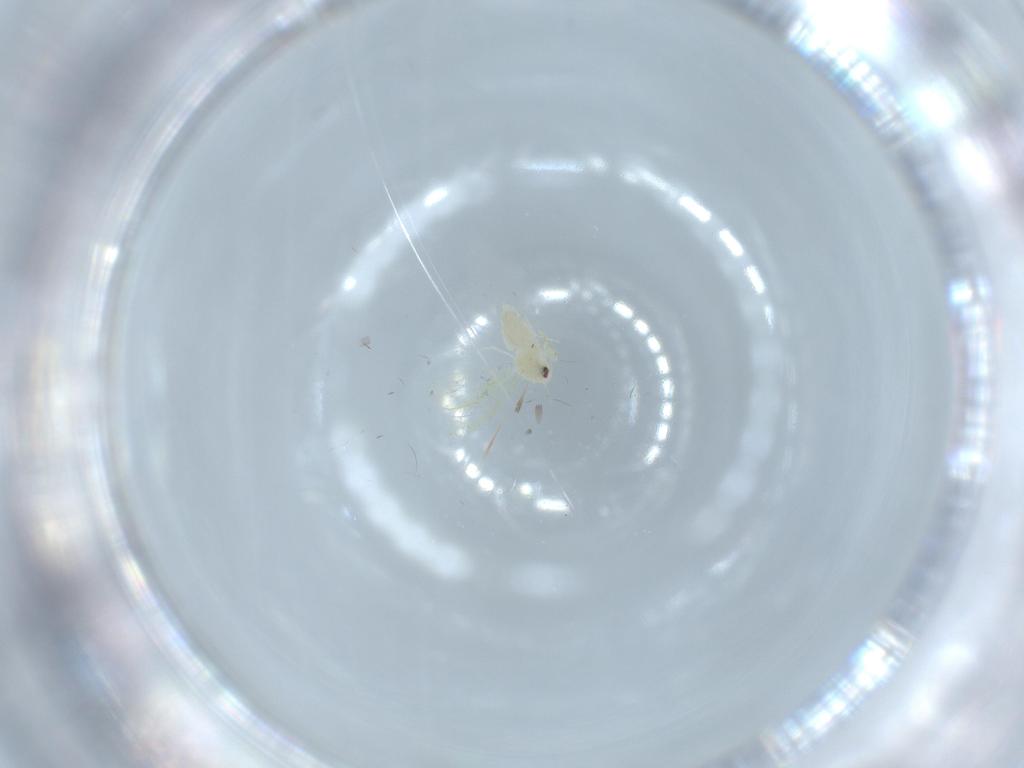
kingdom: Animalia
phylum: Arthropoda
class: Insecta
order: Hemiptera
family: Aleyrodidae
